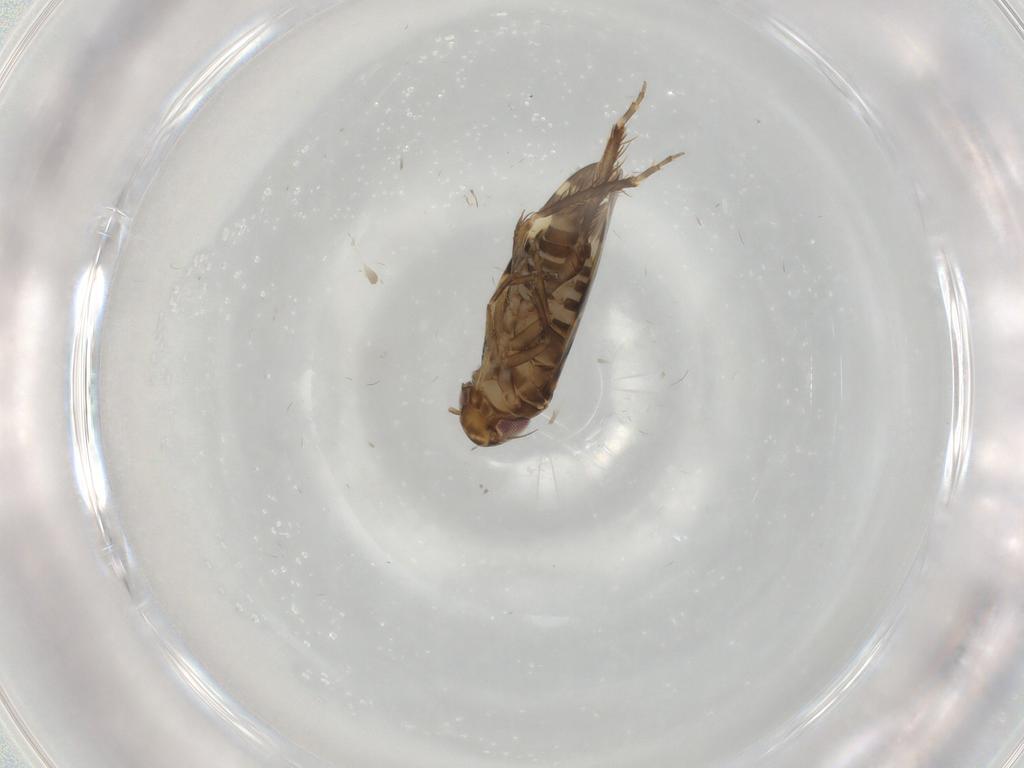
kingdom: Animalia
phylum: Arthropoda
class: Insecta
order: Hemiptera
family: Cicadellidae
